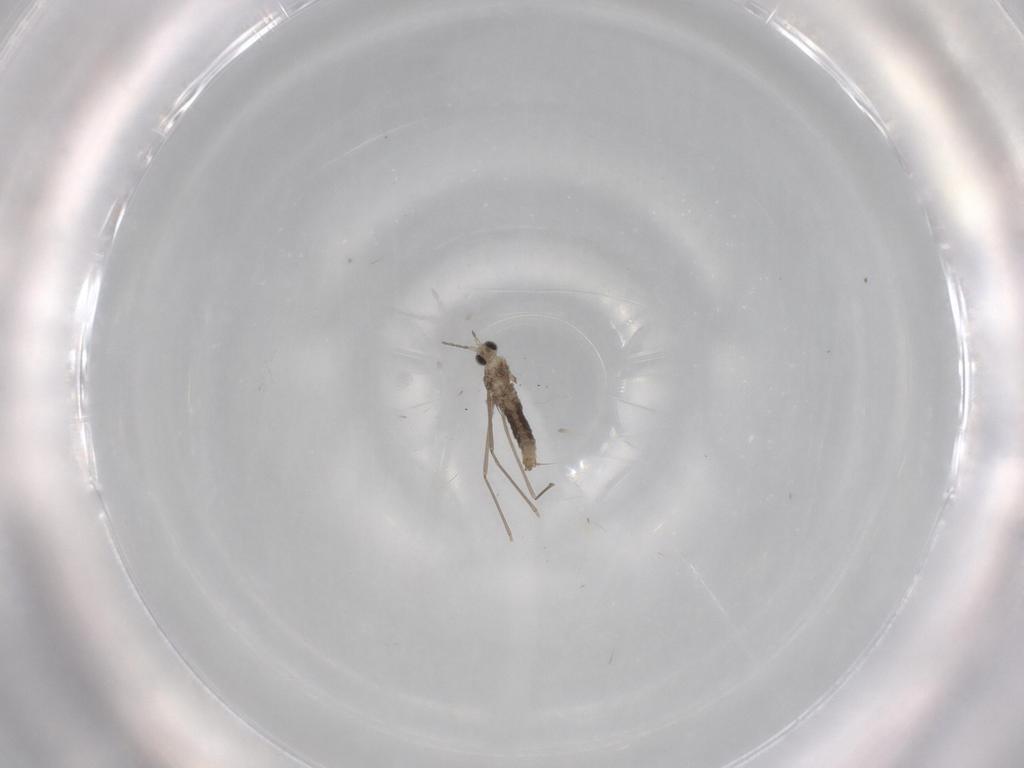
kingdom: Animalia
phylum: Arthropoda
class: Insecta
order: Diptera
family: Cecidomyiidae
